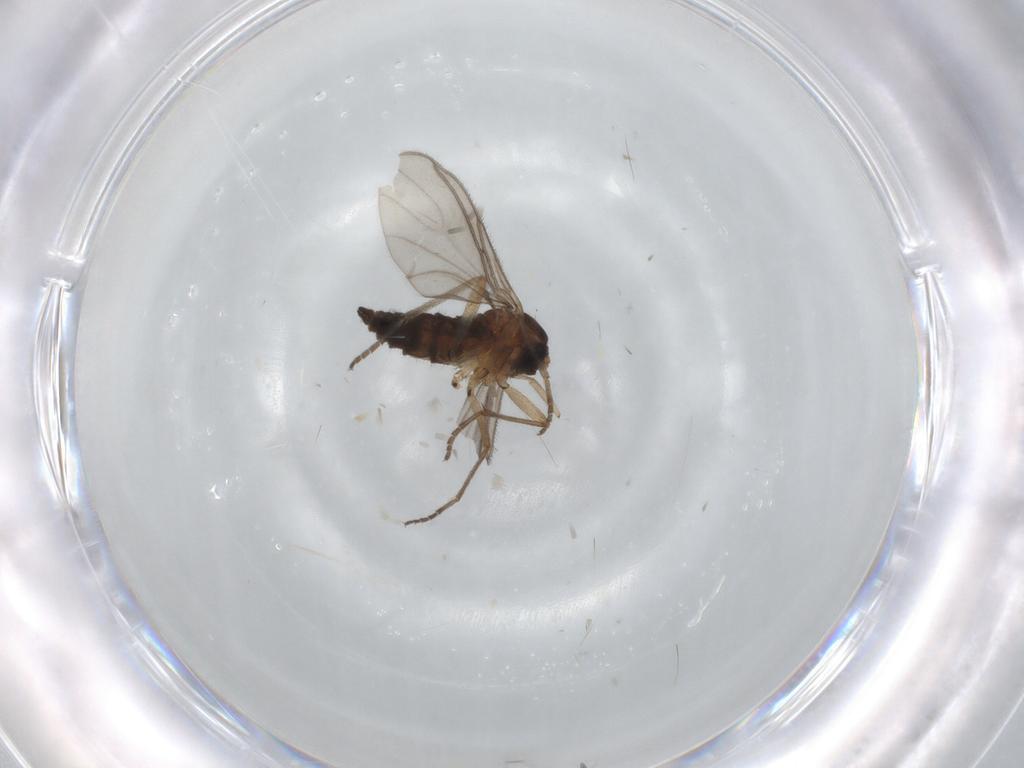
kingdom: Animalia
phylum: Arthropoda
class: Insecta
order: Diptera
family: Sciaridae
